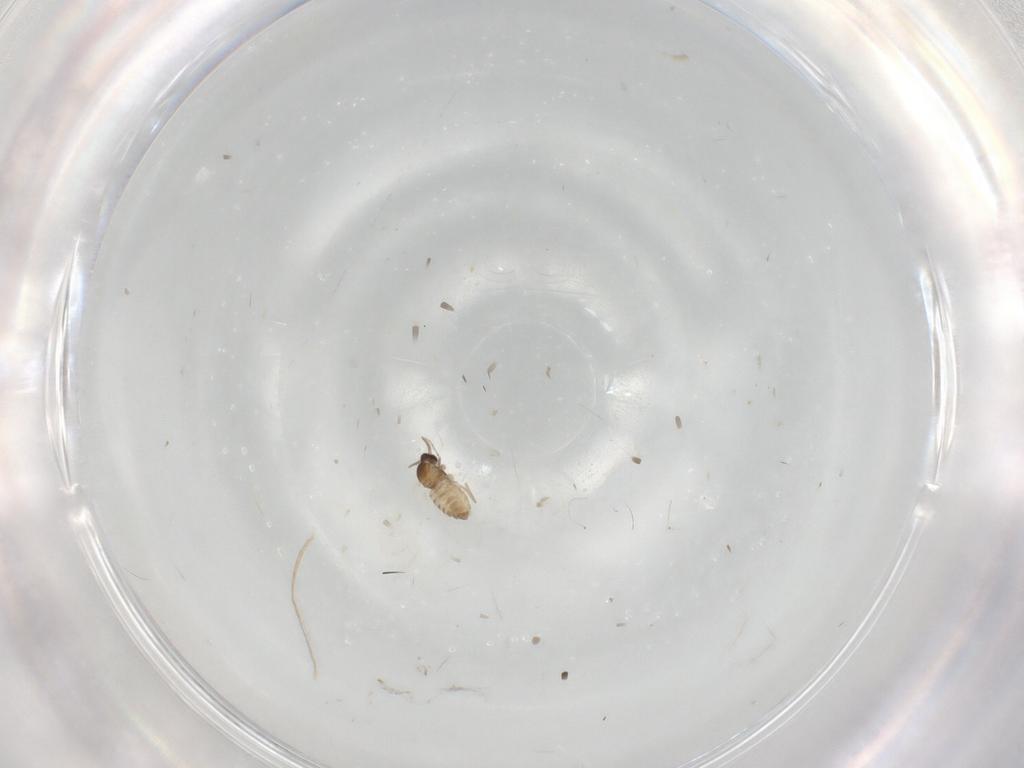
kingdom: Animalia
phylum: Arthropoda
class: Insecta
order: Diptera
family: Cecidomyiidae
